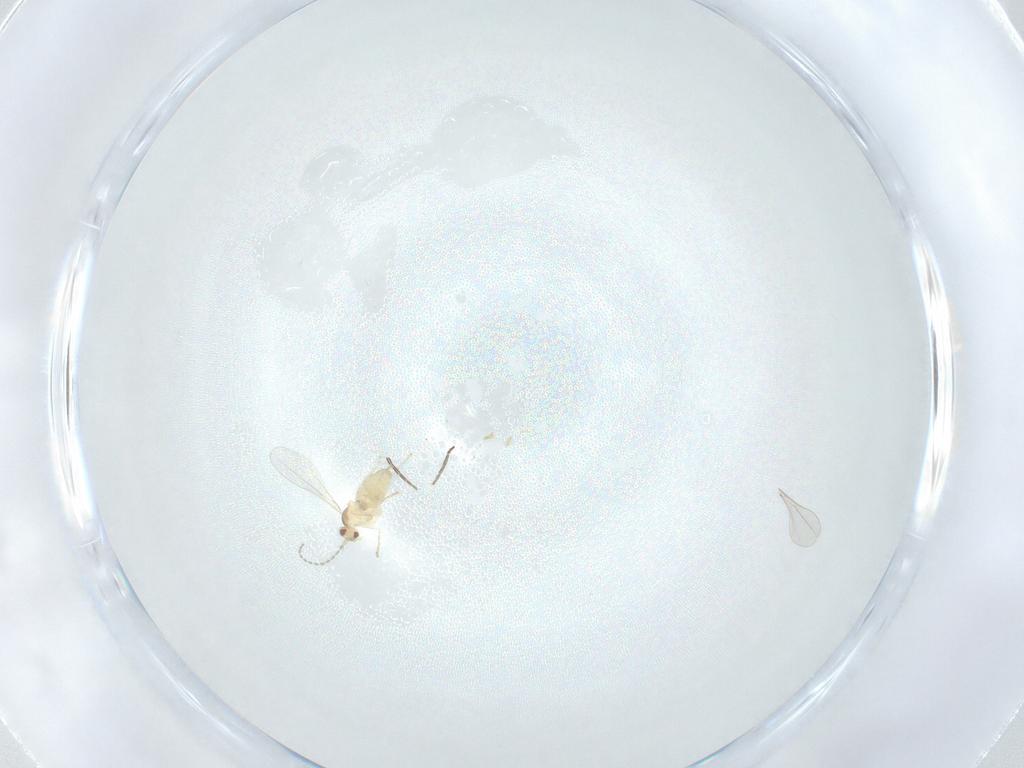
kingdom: Animalia
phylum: Arthropoda
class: Insecta
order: Diptera
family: Cecidomyiidae
